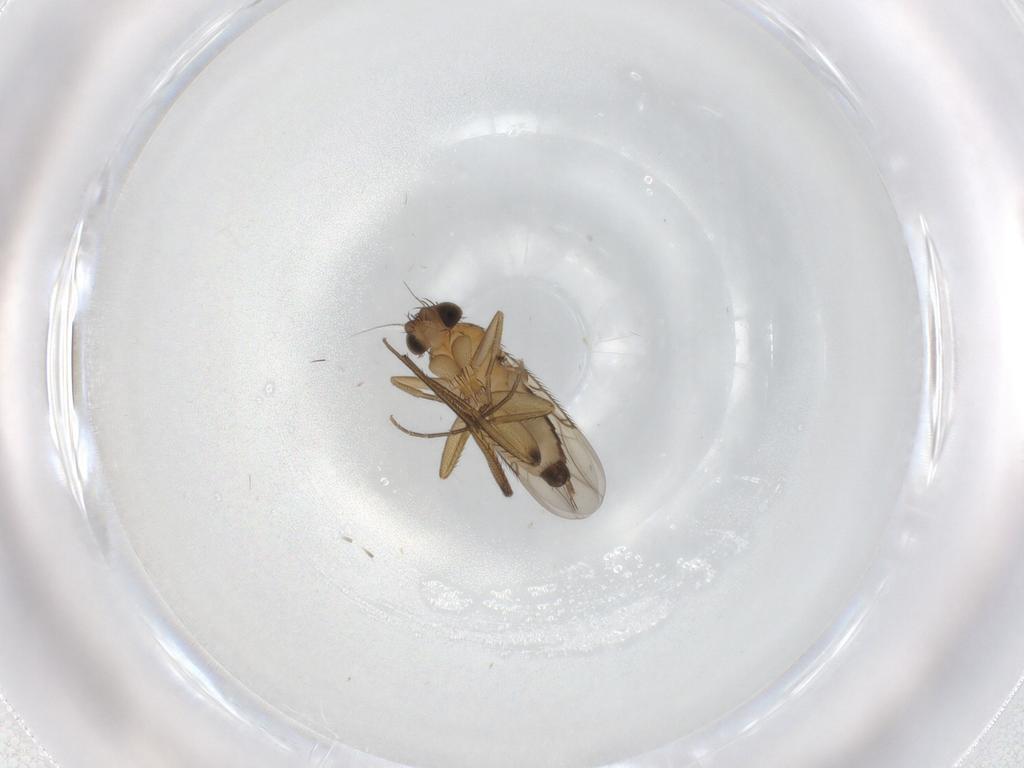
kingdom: Animalia
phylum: Arthropoda
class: Insecta
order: Diptera
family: Phoridae
